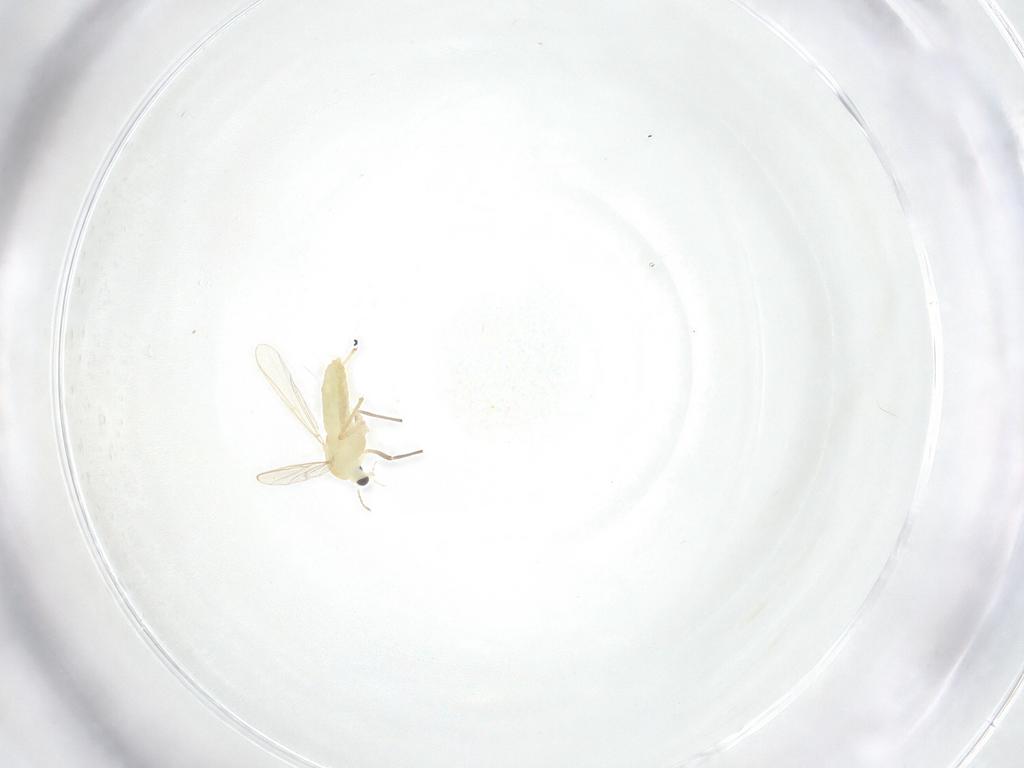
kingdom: Animalia
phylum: Arthropoda
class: Insecta
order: Diptera
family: Chironomidae
